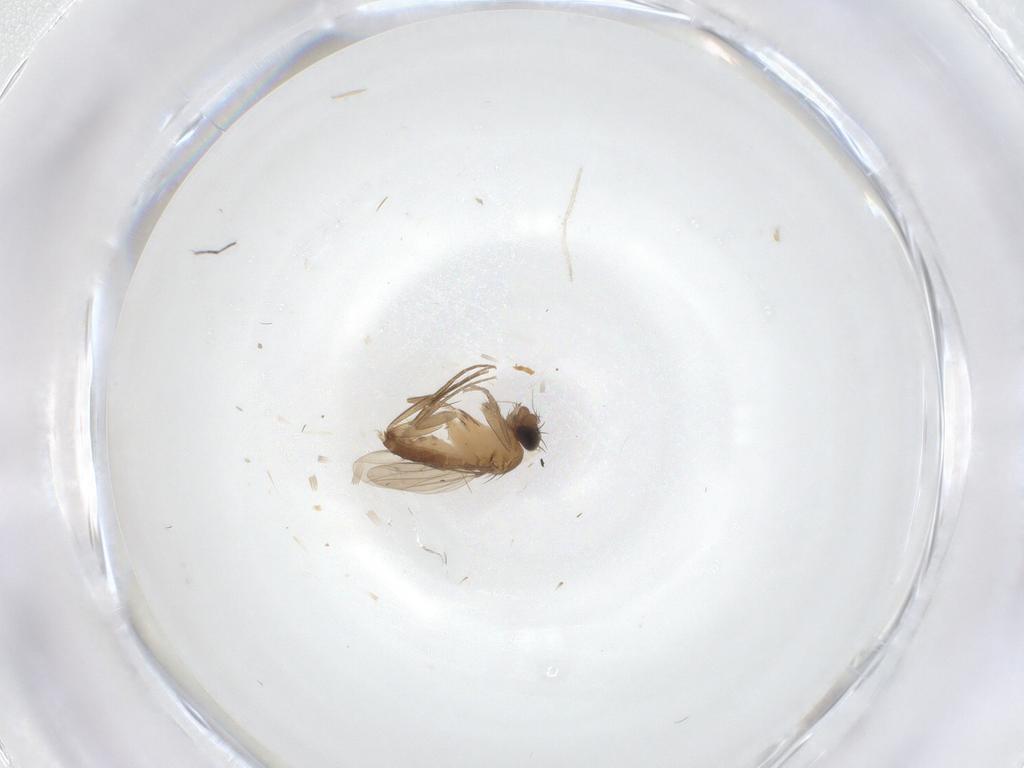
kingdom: Animalia
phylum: Arthropoda
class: Insecta
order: Diptera
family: Phoridae
